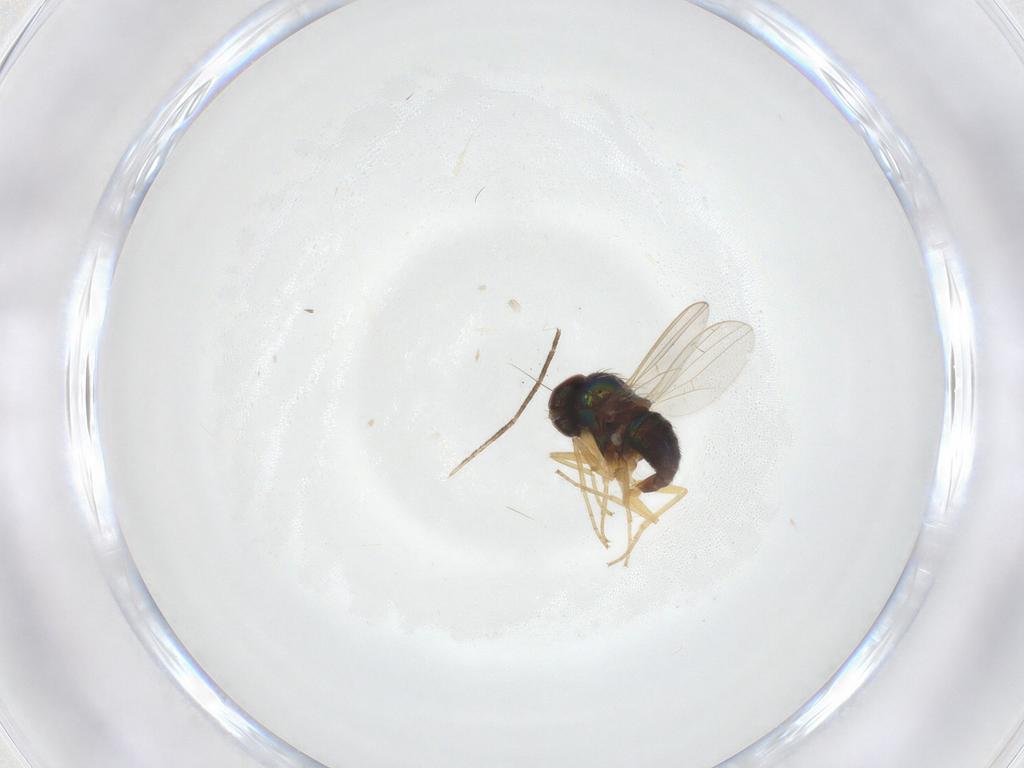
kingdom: Animalia
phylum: Arthropoda
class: Insecta
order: Diptera
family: Dolichopodidae
